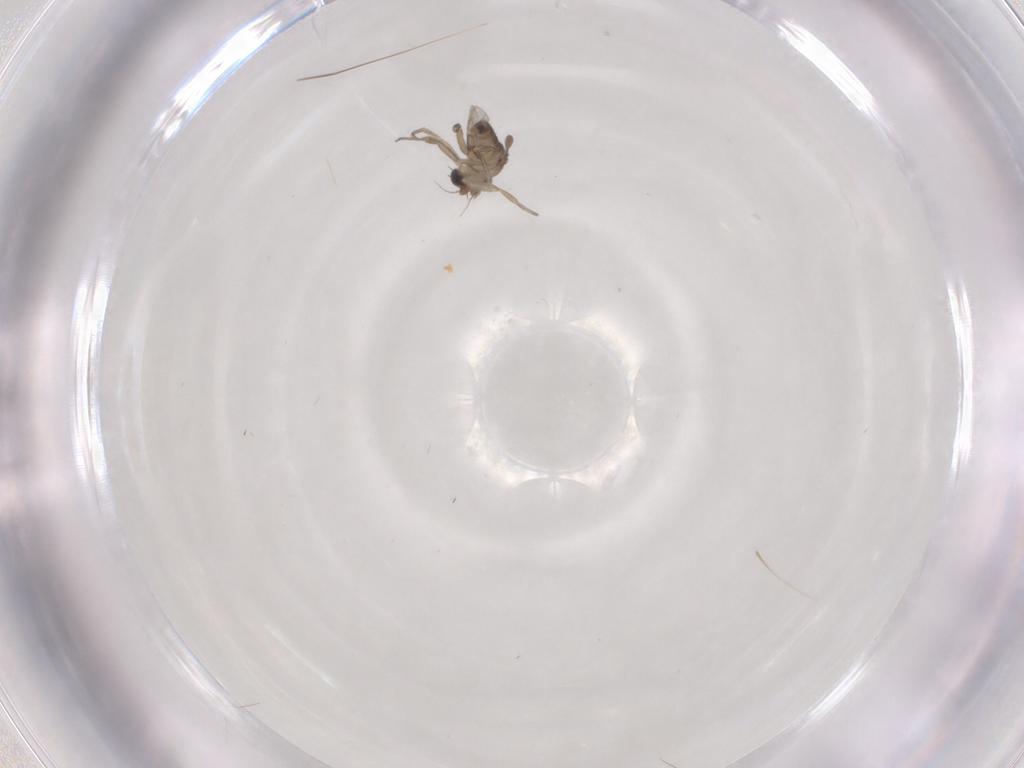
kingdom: Animalia
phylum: Arthropoda
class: Insecta
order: Diptera
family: Phoridae
